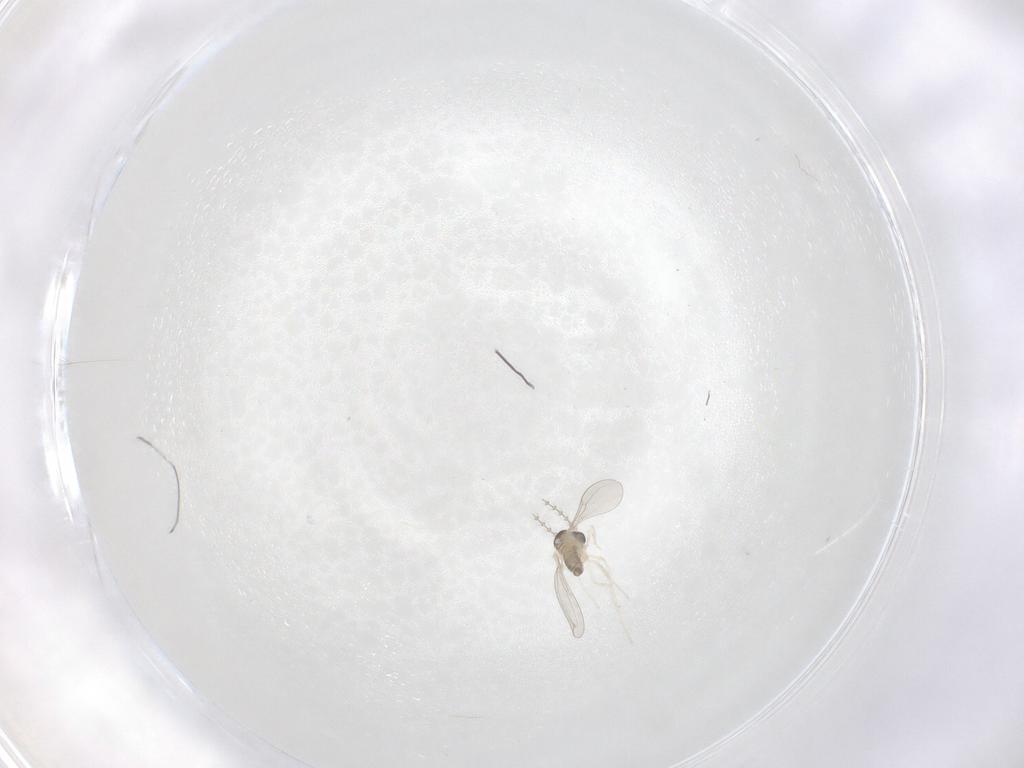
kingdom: Animalia
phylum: Arthropoda
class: Insecta
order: Diptera
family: Cecidomyiidae
